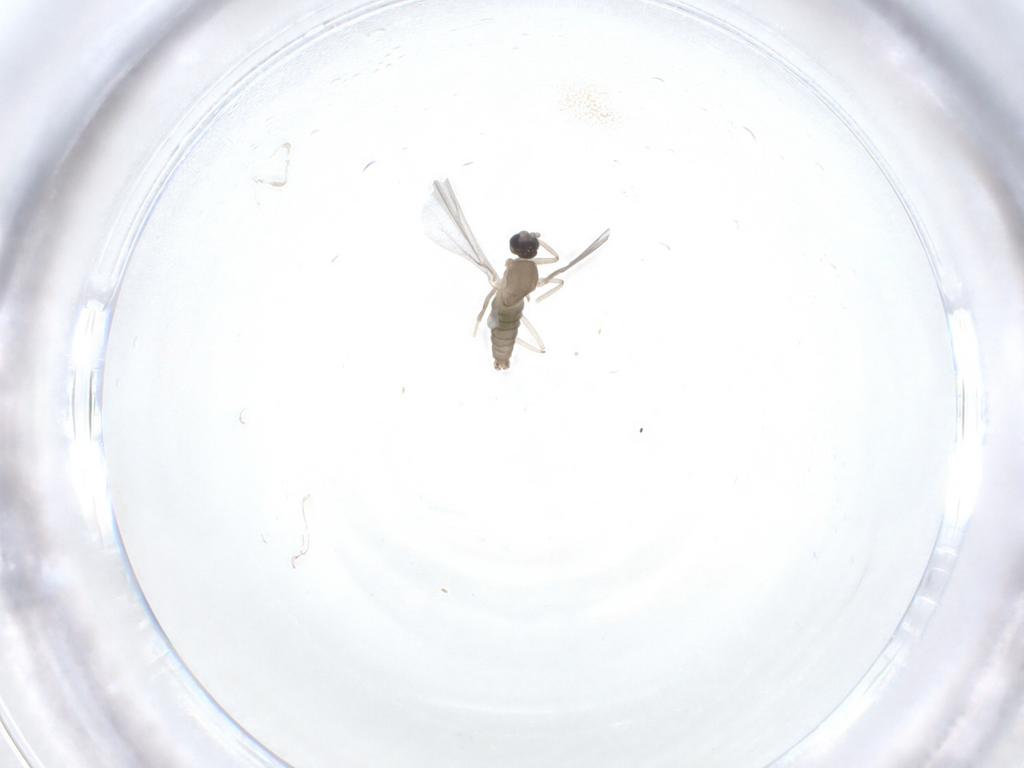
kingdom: Animalia
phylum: Arthropoda
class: Insecta
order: Diptera
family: Cecidomyiidae
